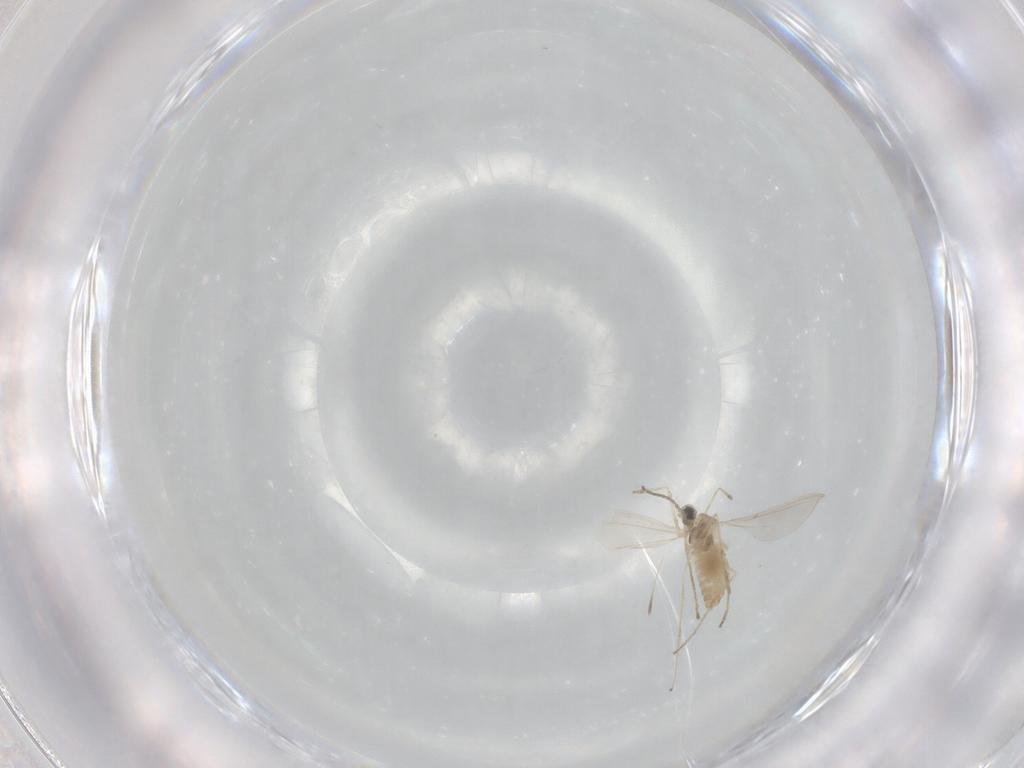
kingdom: Animalia
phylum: Arthropoda
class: Insecta
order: Diptera
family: Cecidomyiidae
